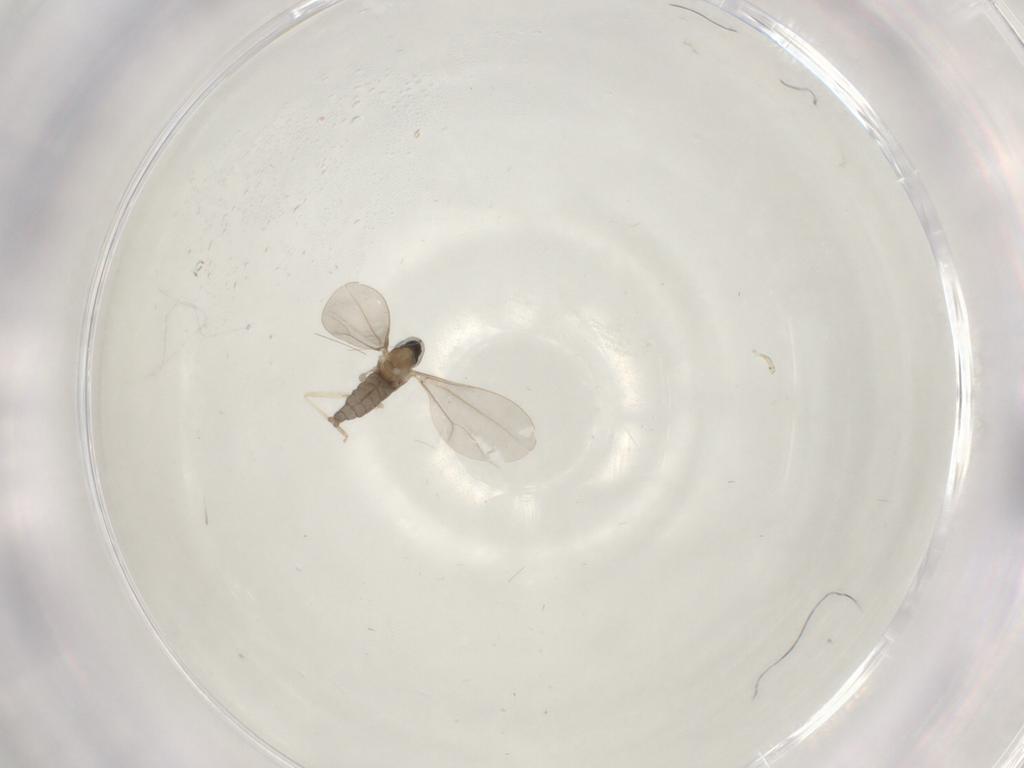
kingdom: Animalia
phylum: Arthropoda
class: Insecta
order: Diptera
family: Cecidomyiidae
